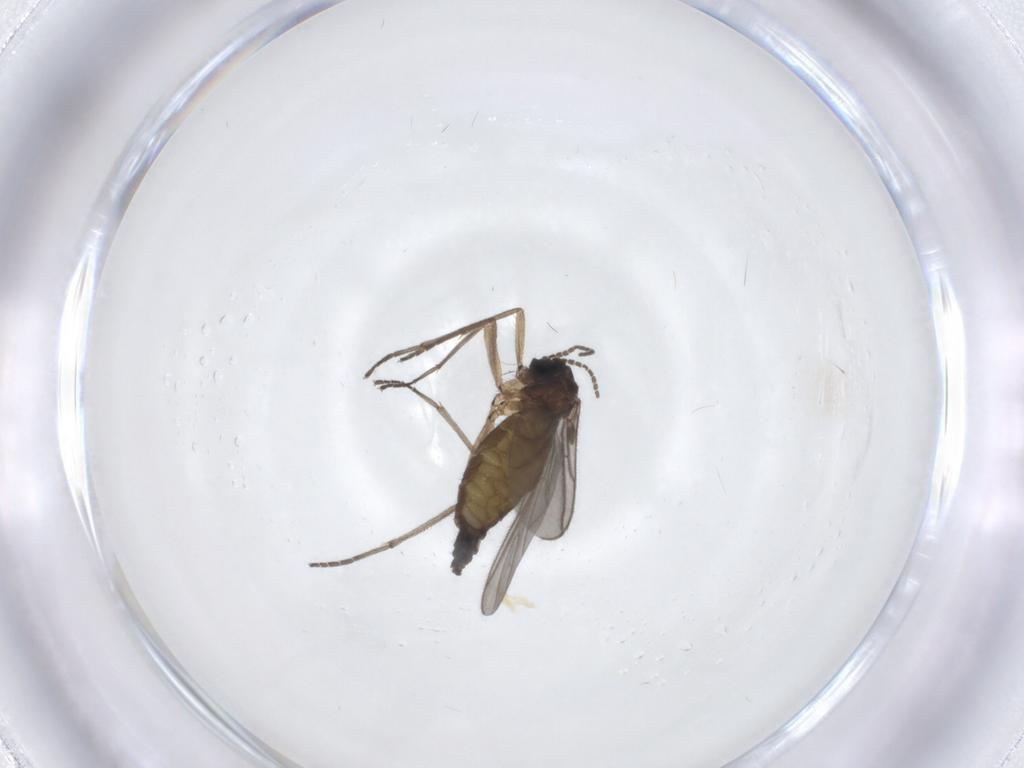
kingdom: Animalia
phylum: Arthropoda
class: Insecta
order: Diptera
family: Sciaridae
